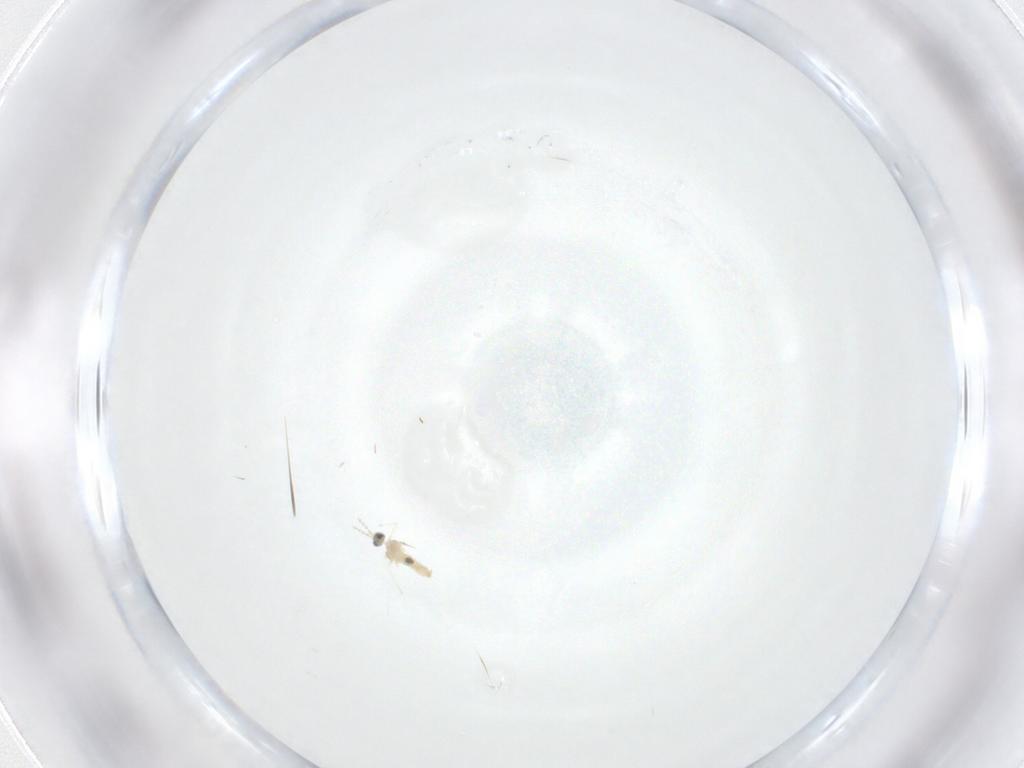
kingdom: Animalia
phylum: Arthropoda
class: Insecta
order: Diptera
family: Cecidomyiidae
